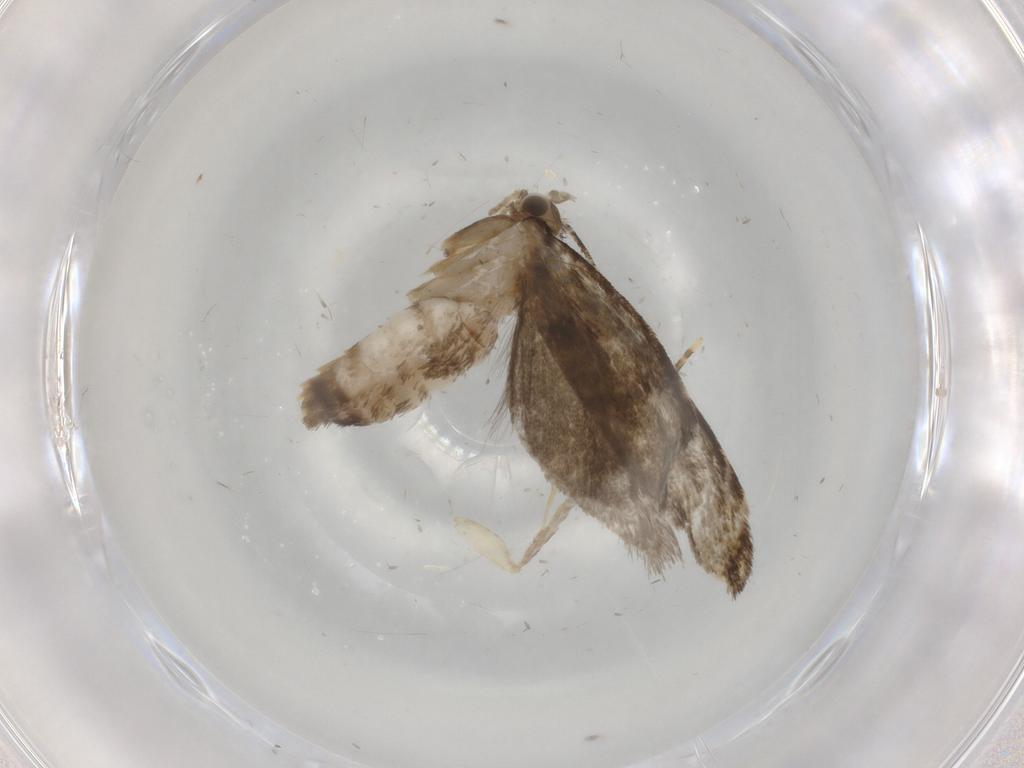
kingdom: Animalia
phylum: Arthropoda
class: Insecta
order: Lepidoptera
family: Tineidae
